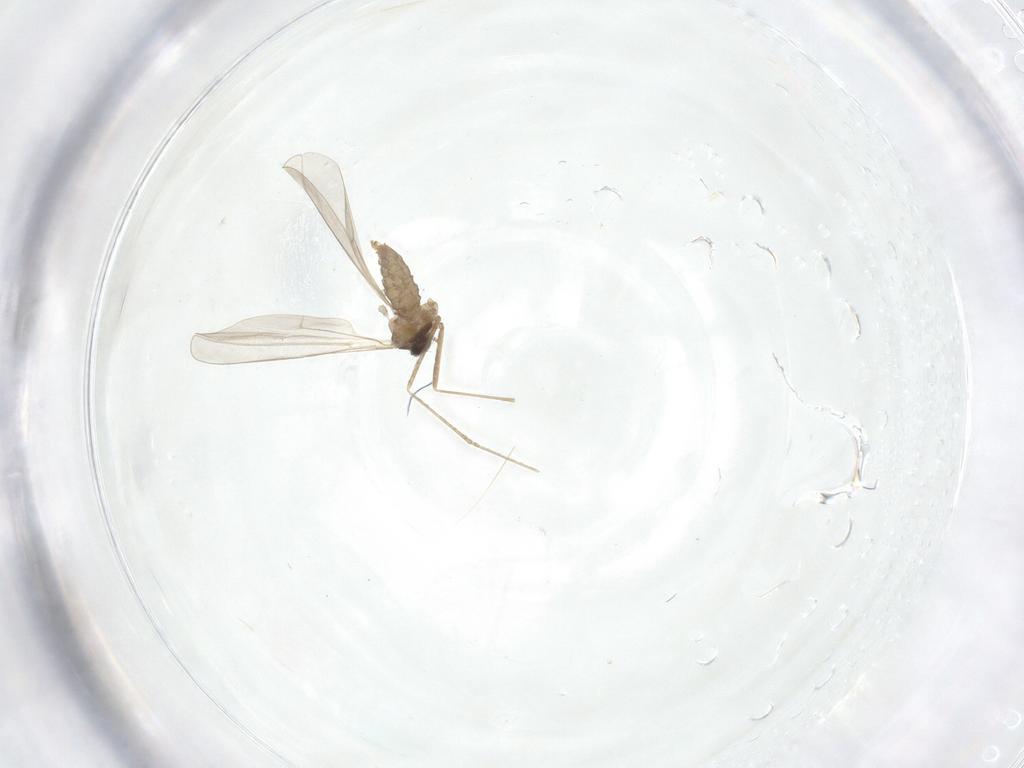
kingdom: Animalia
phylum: Arthropoda
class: Insecta
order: Diptera
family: Cecidomyiidae
